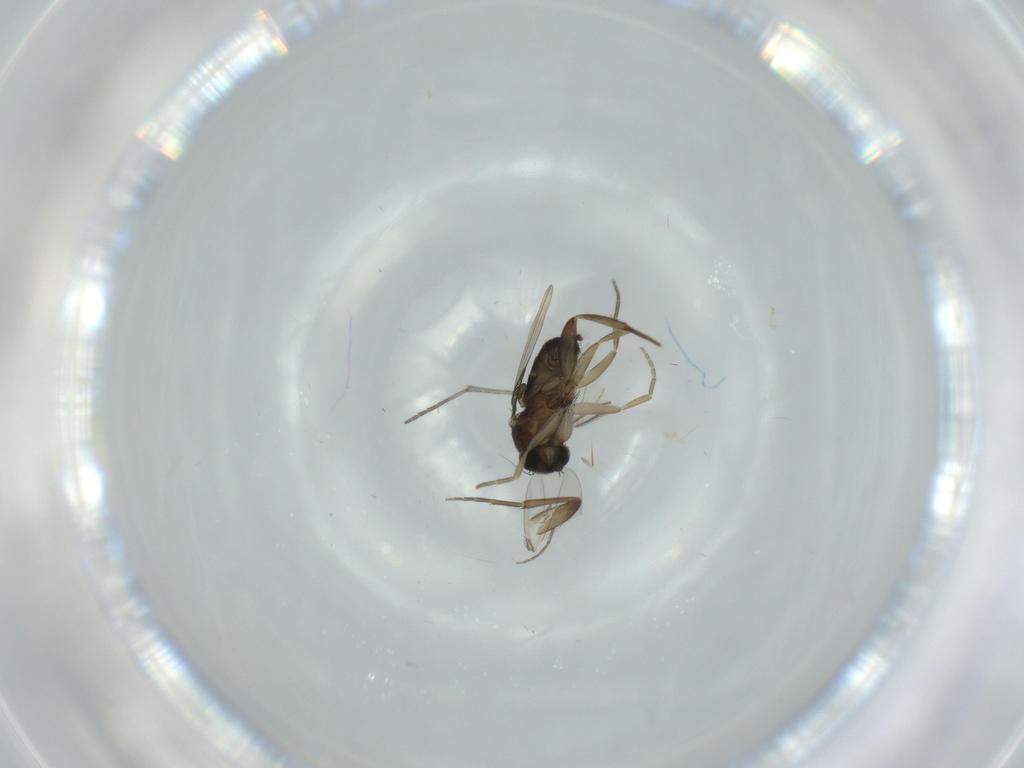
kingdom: Animalia
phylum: Arthropoda
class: Insecta
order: Diptera
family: Phoridae
